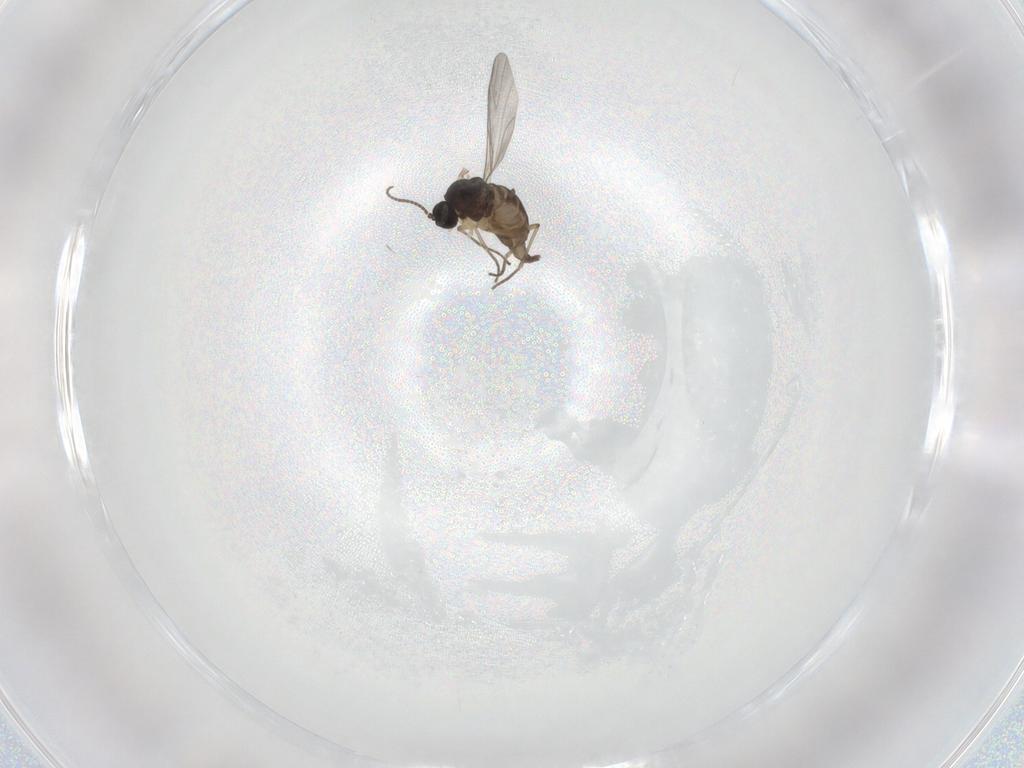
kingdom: Animalia
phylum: Arthropoda
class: Insecta
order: Diptera
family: Sciaridae
